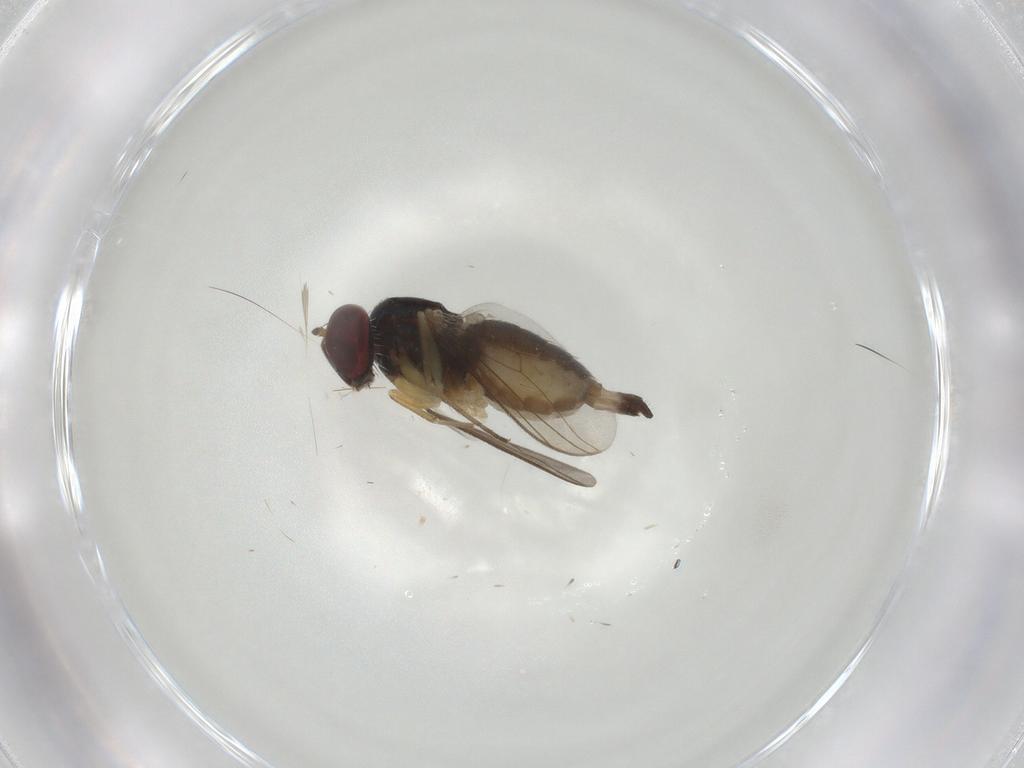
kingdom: Animalia
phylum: Arthropoda
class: Insecta
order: Diptera
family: Dolichopodidae
